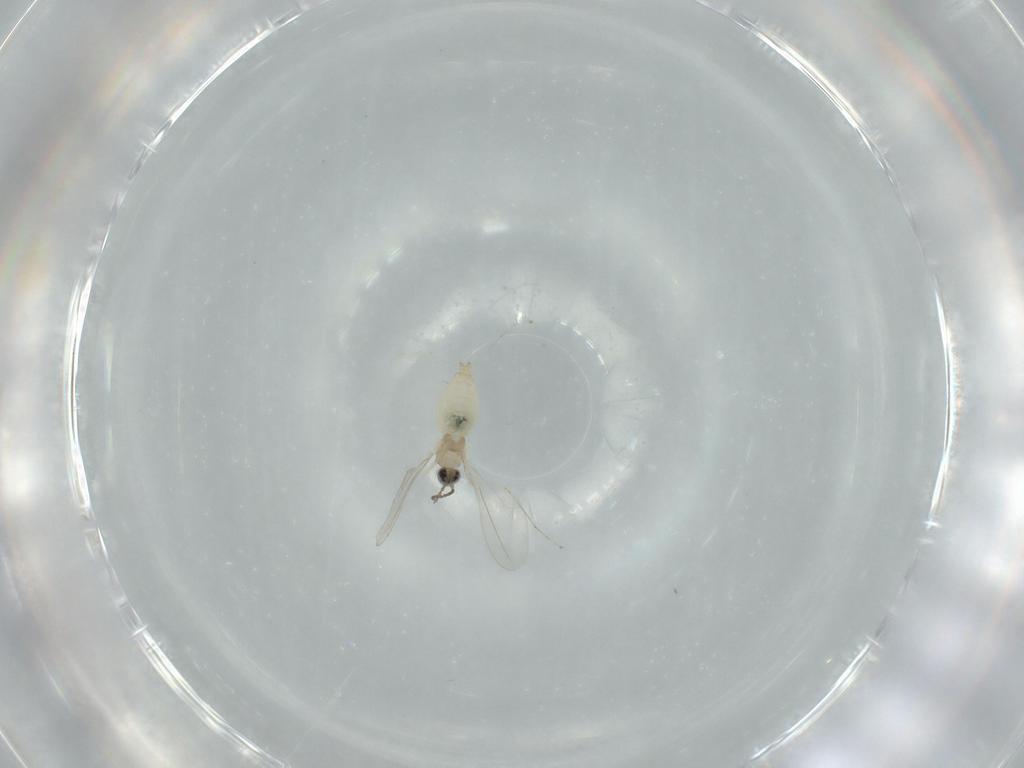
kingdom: Animalia
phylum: Arthropoda
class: Insecta
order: Diptera
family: Cecidomyiidae
